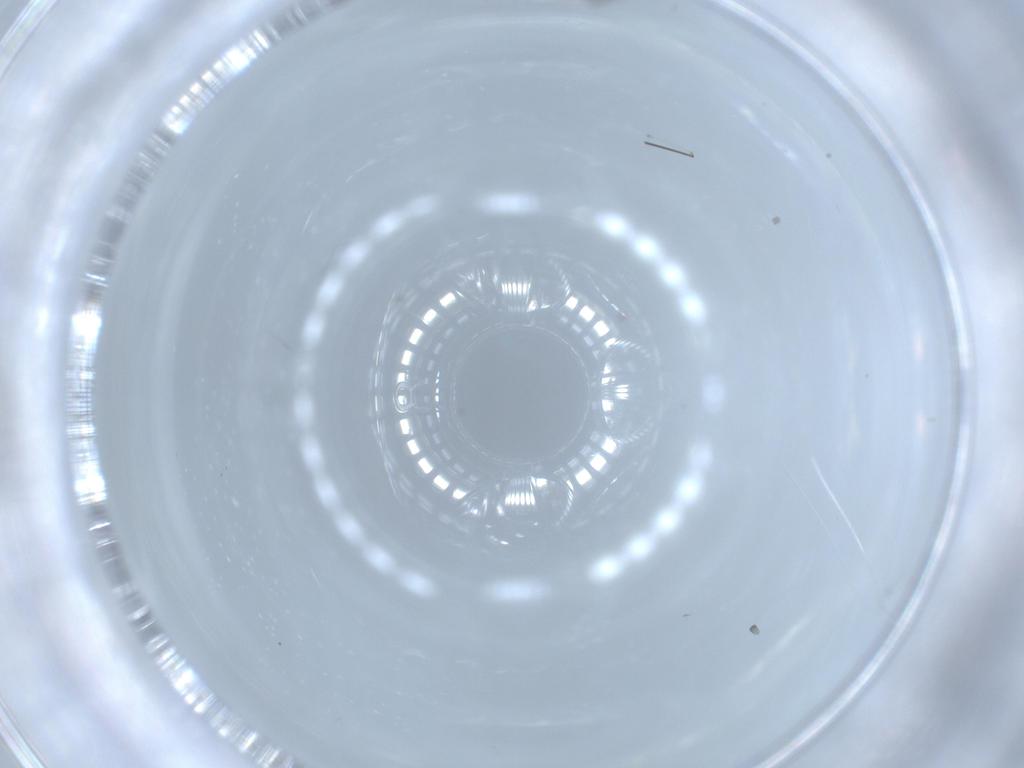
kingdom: Animalia
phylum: Arthropoda
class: Insecta
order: Diptera
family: Cecidomyiidae
